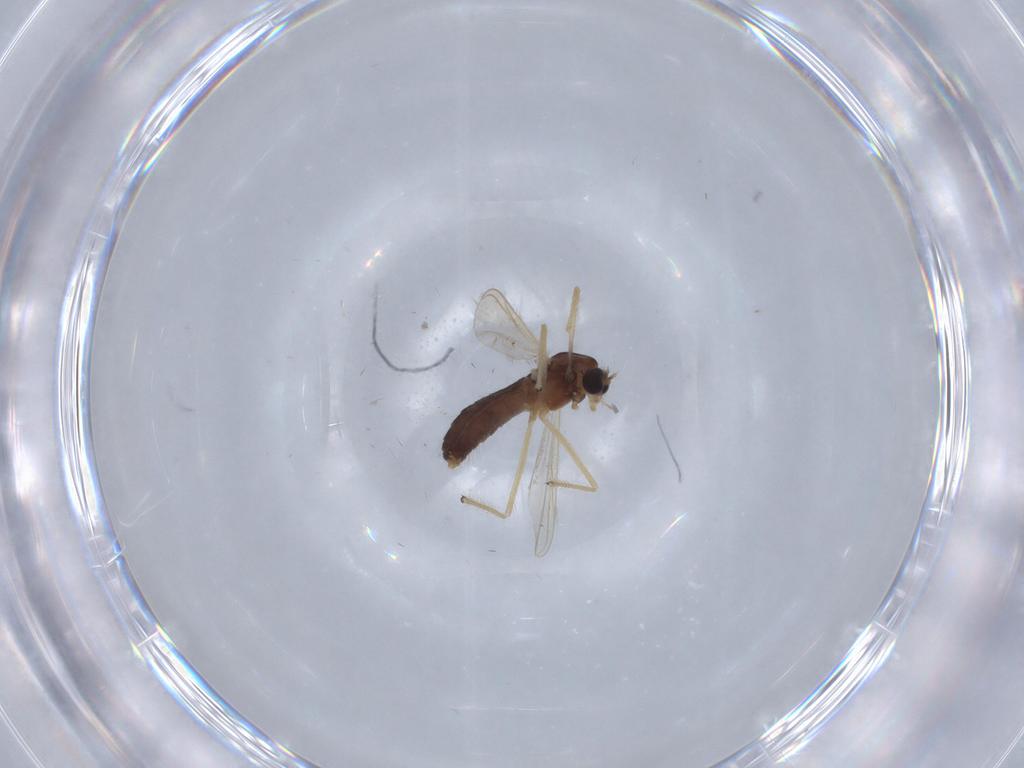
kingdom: Animalia
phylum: Arthropoda
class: Insecta
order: Diptera
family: Chironomidae
